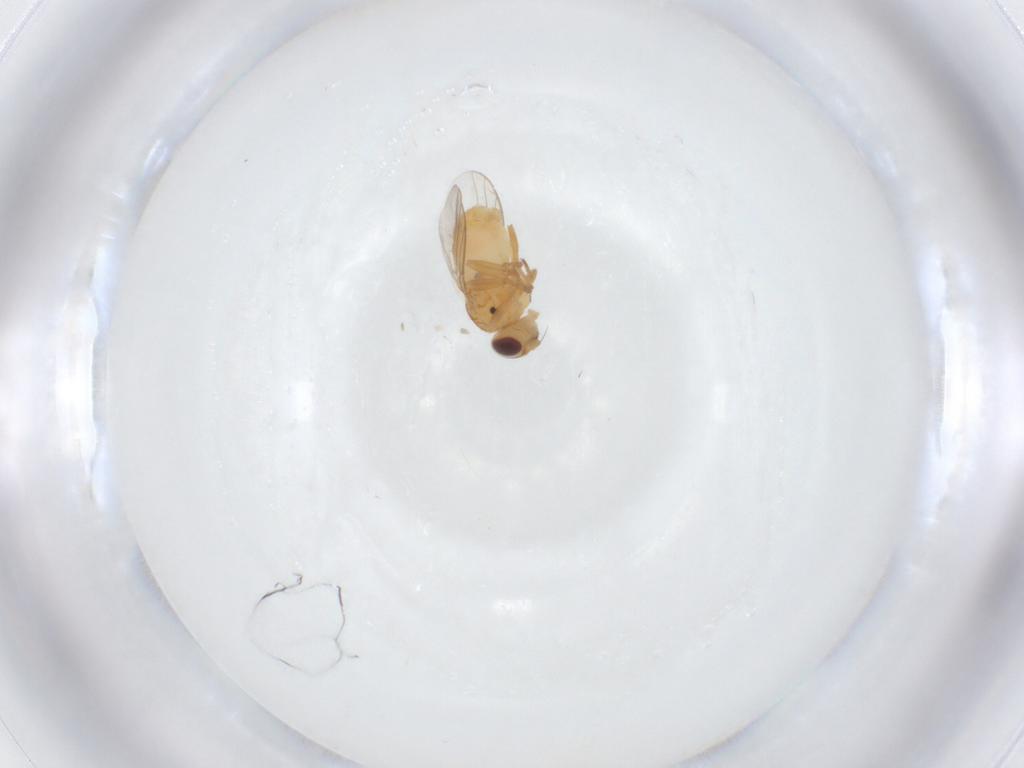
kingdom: Animalia
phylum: Arthropoda
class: Insecta
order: Diptera
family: Chloropidae
